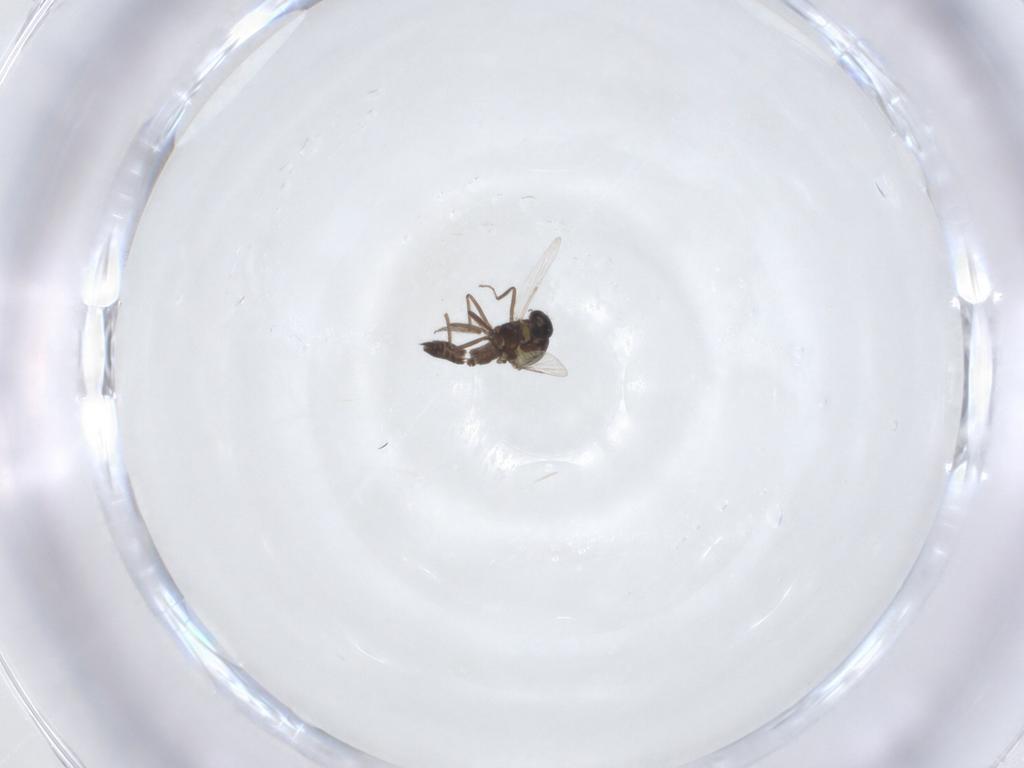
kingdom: Animalia
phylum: Arthropoda
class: Insecta
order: Diptera
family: Ceratopogonidae
